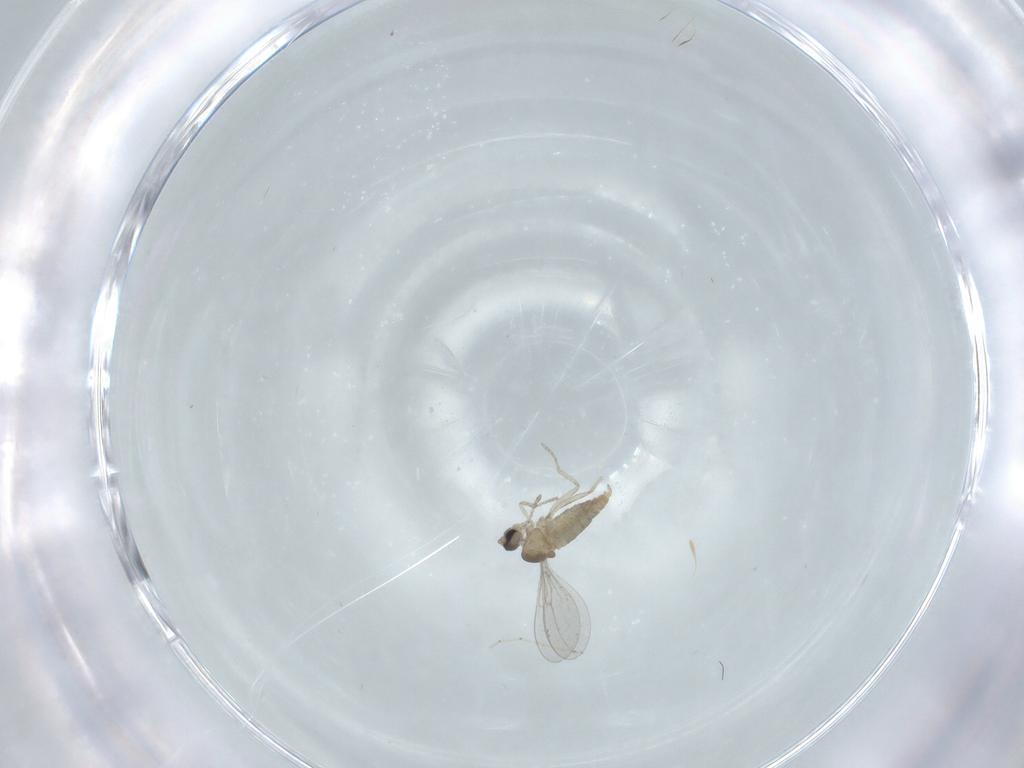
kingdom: Animalia
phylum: Arthropoda
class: Insecta
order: Diptera
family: Cecidomyiidae
